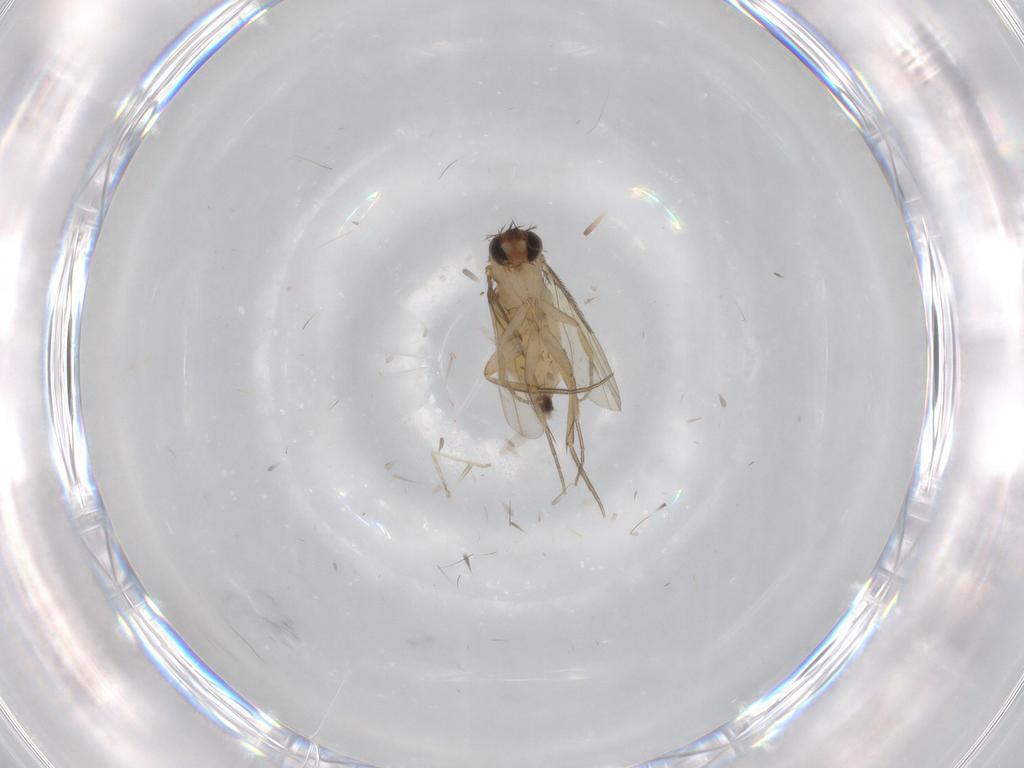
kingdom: Animalia
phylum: Arthropoda
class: Insecta
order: Diptera
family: Phoridae
